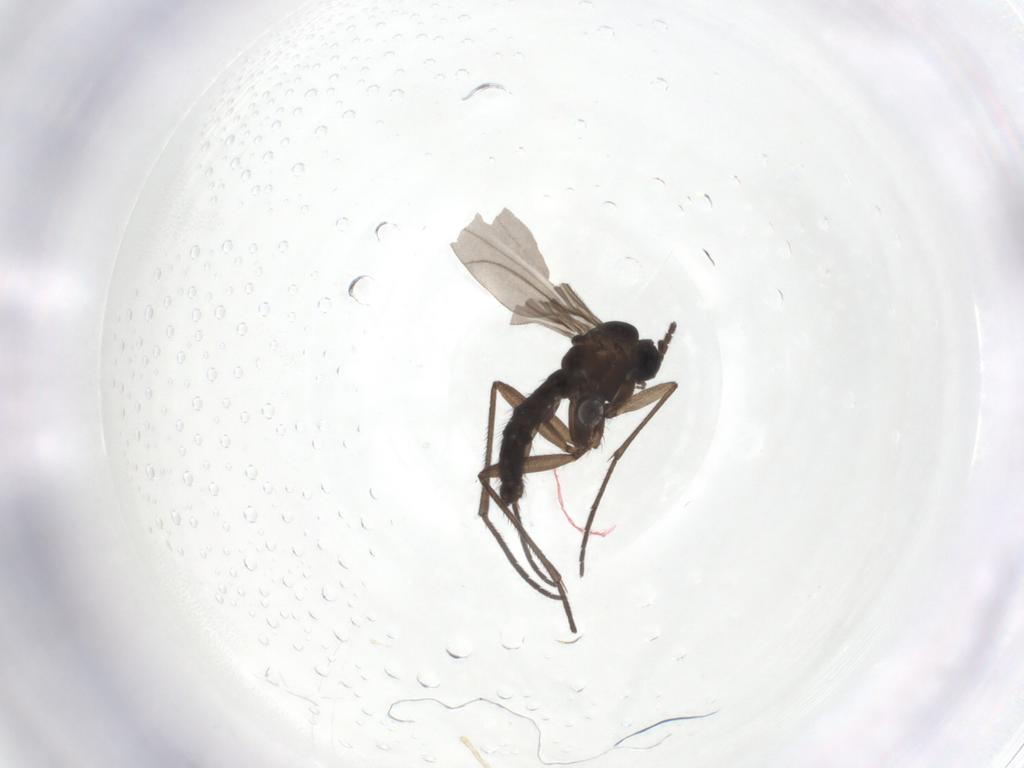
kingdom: Animalia
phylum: Arthropoda
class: Insecta
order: Diptera
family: Sciaridae
